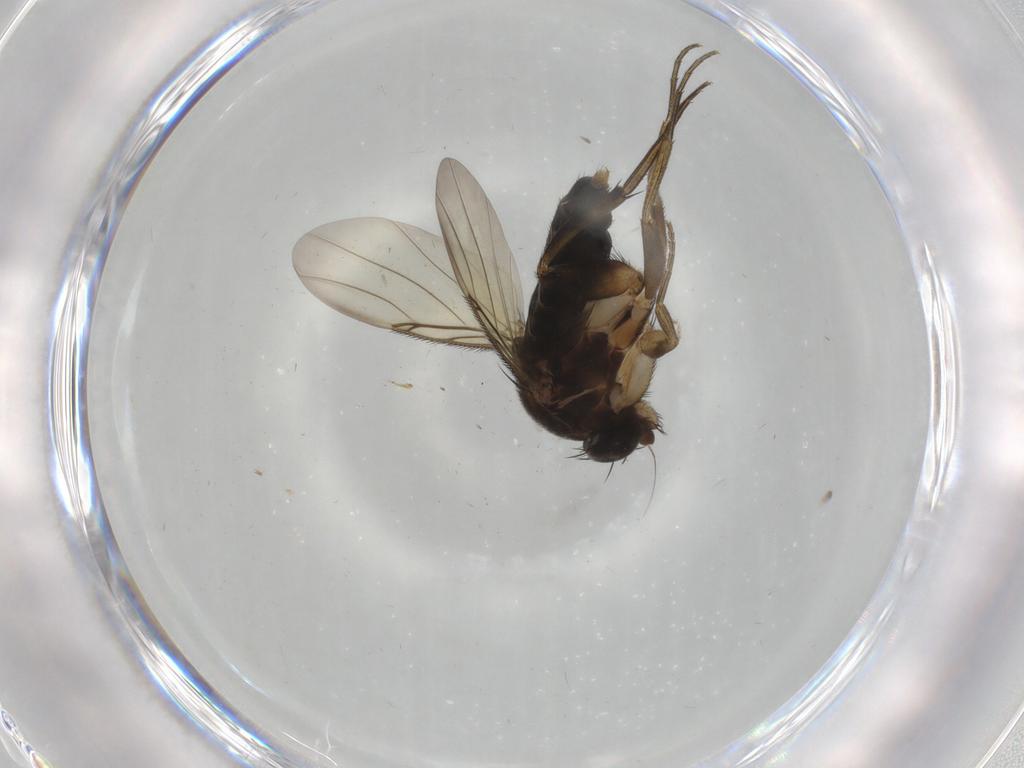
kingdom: Animalia
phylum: Arthropoda
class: Insecta
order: Diptera
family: Phoridae
